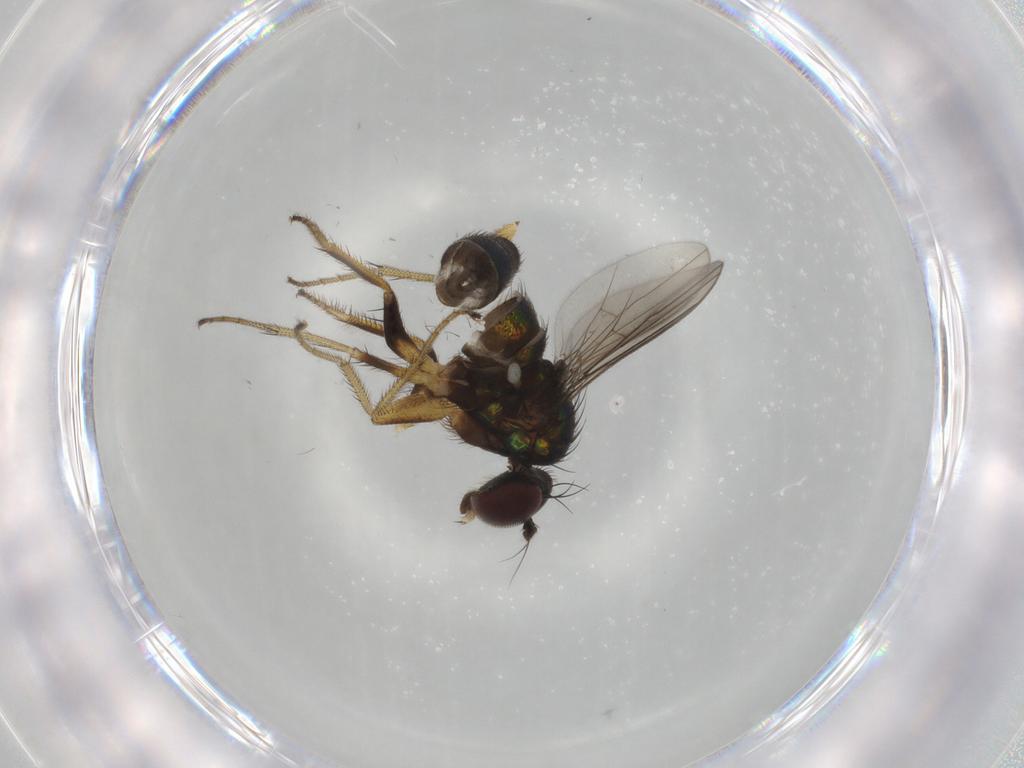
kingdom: Animalia
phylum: Arthropoda
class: Insecta
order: Diptera
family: Dolichopodidae
